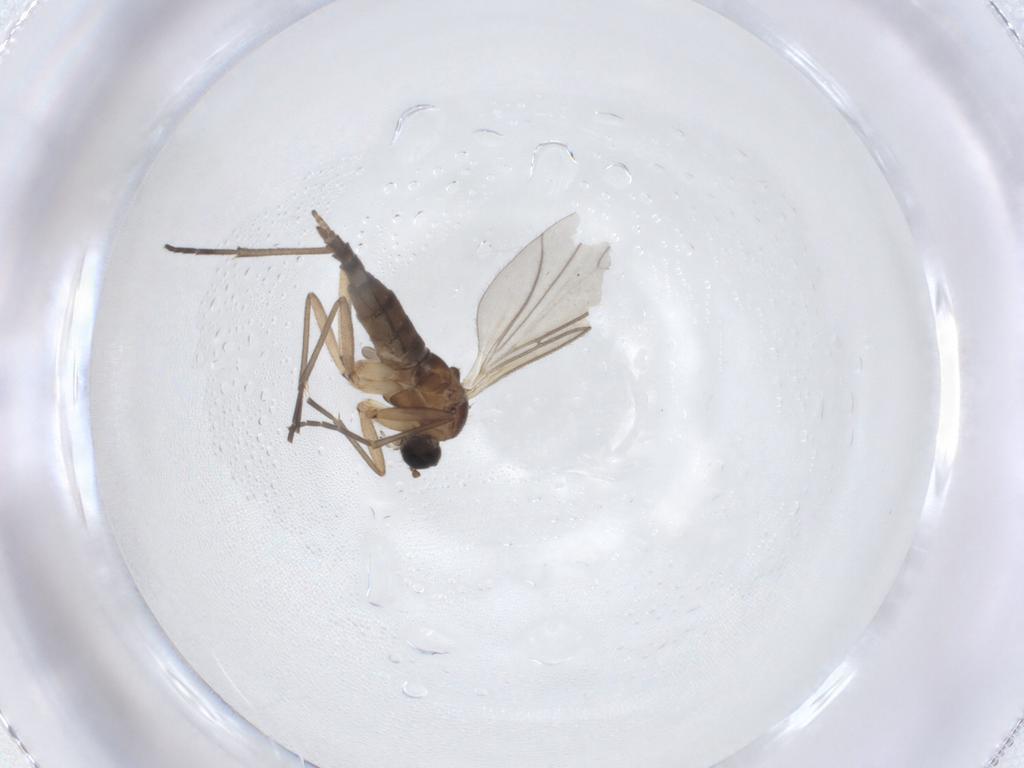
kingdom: Animalia
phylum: Arthropoda
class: Insecta
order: Diptera
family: Sciaridae
